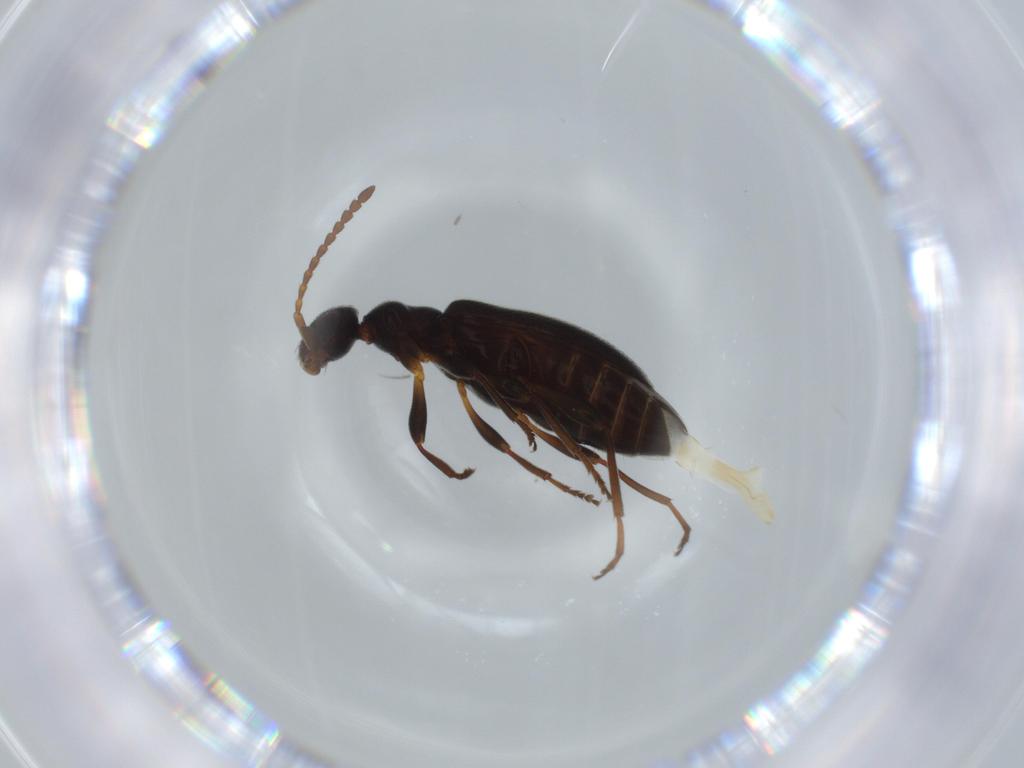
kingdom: Animalia
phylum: Arthropoda
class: Insecta
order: Coleoptera
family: Anthicidae
